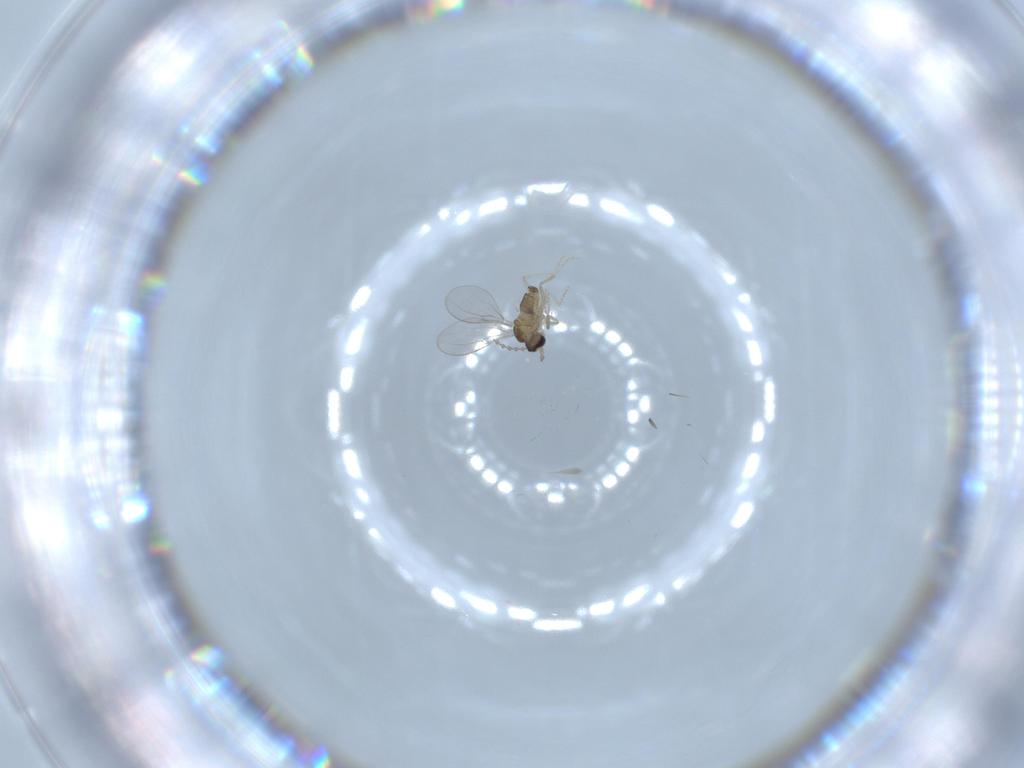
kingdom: Animalia
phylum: Arthropoda
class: Insecta
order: Diptera
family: Cecidomyiidae
